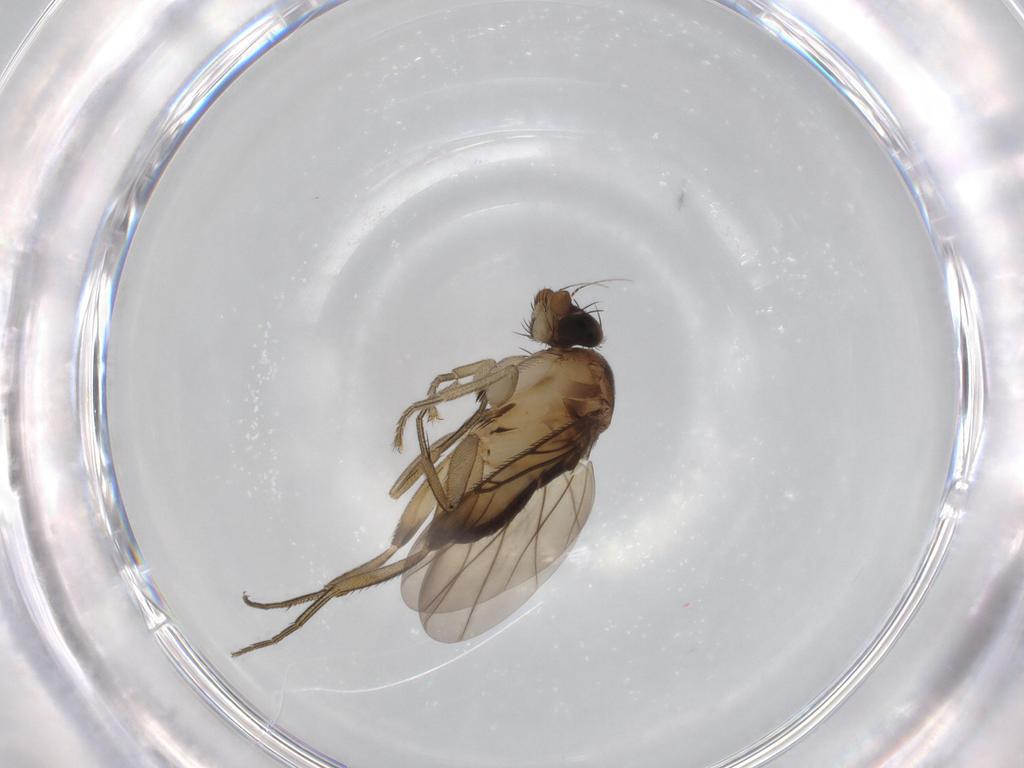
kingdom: Animalia
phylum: Arthropoda
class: Insecta
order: Diptera
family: Phoridae
